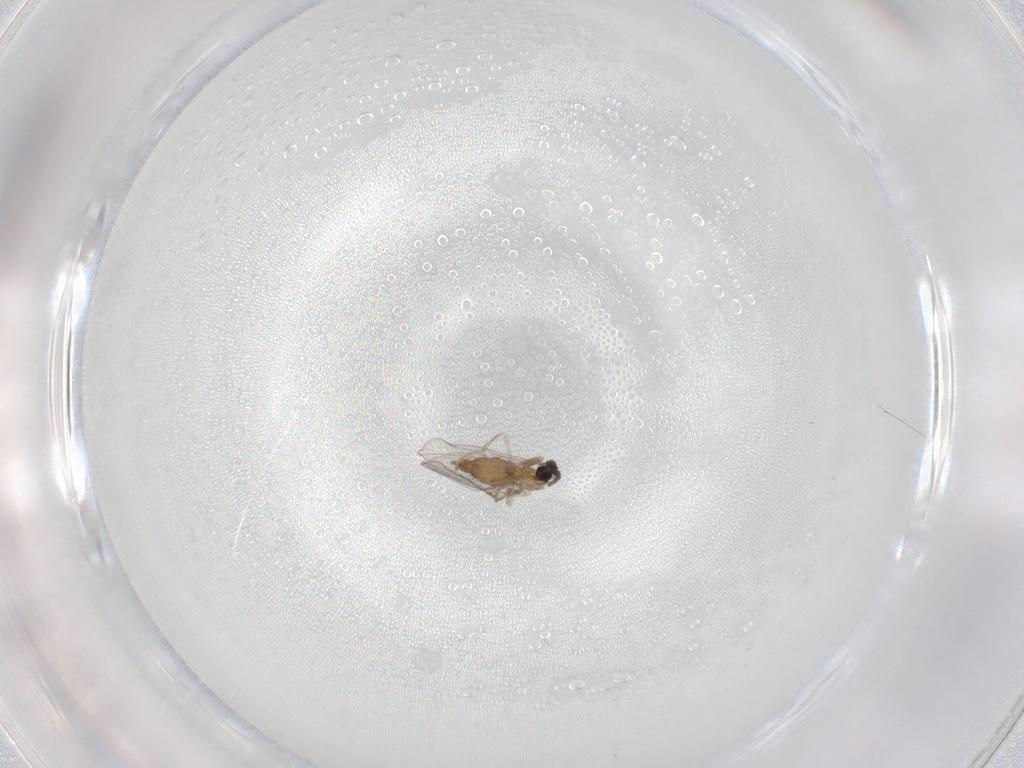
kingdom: Animalia
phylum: Arthropoda
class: Insecta
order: Diptera
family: Cecidomyiidae
